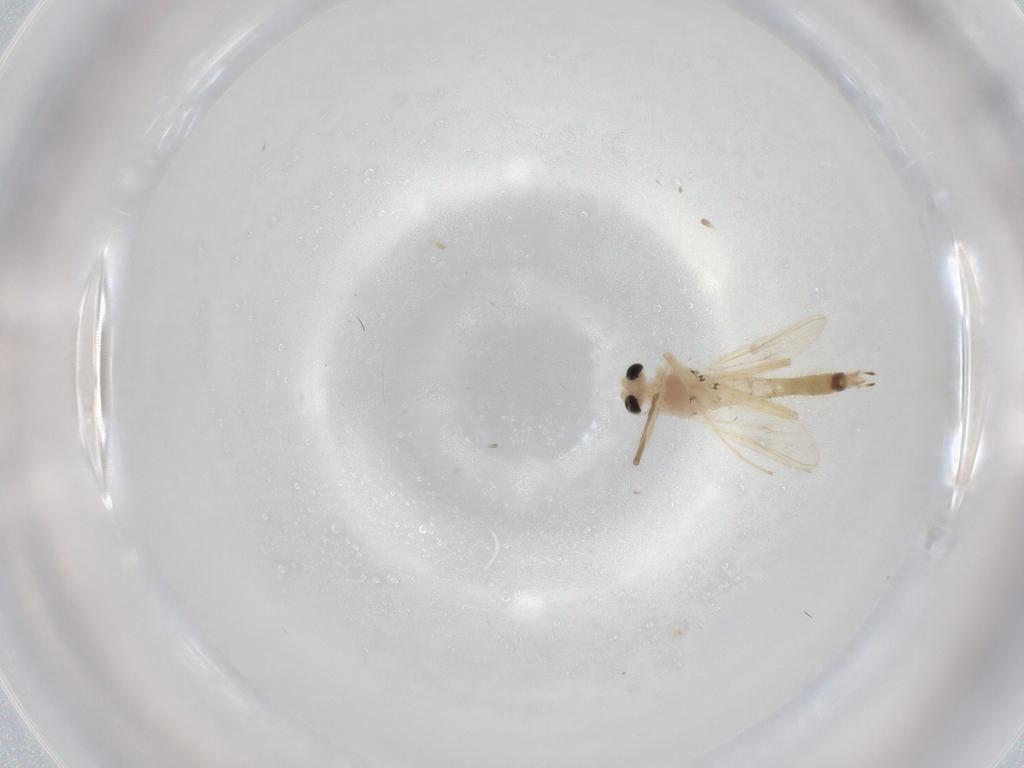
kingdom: Animalia
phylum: Arthropoda
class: Insecta
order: Diptera
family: Chironomidae
